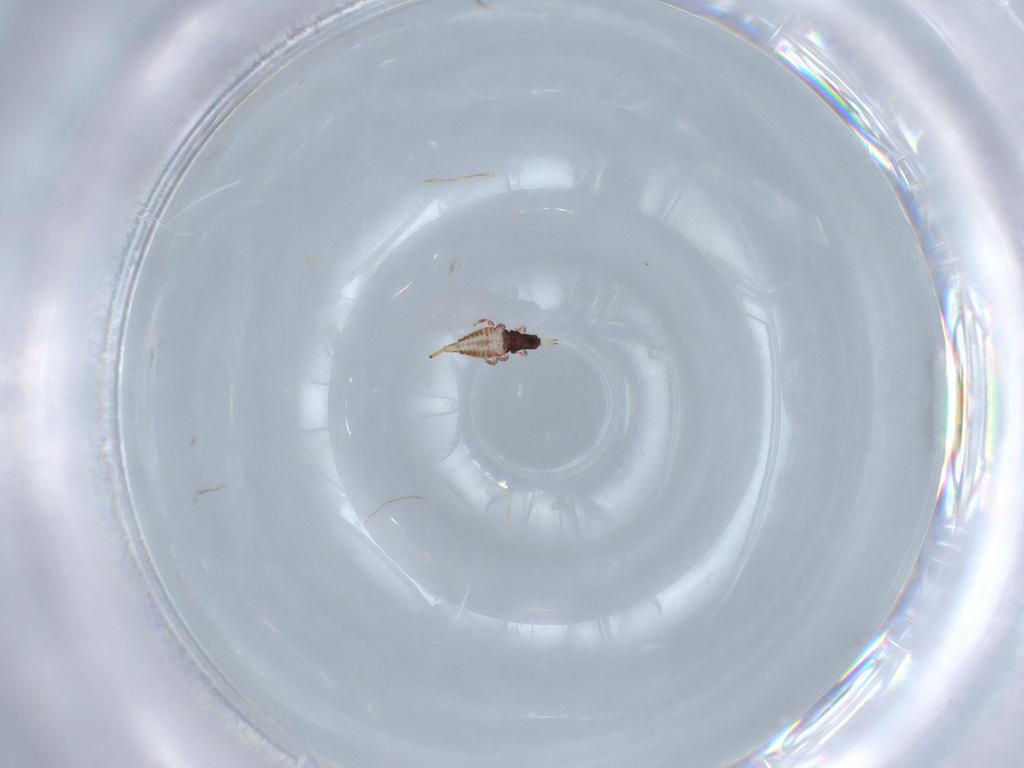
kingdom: Animalia
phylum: Arthropoda
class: Insecta
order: Thysanoptera
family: Phlaeothripidae
